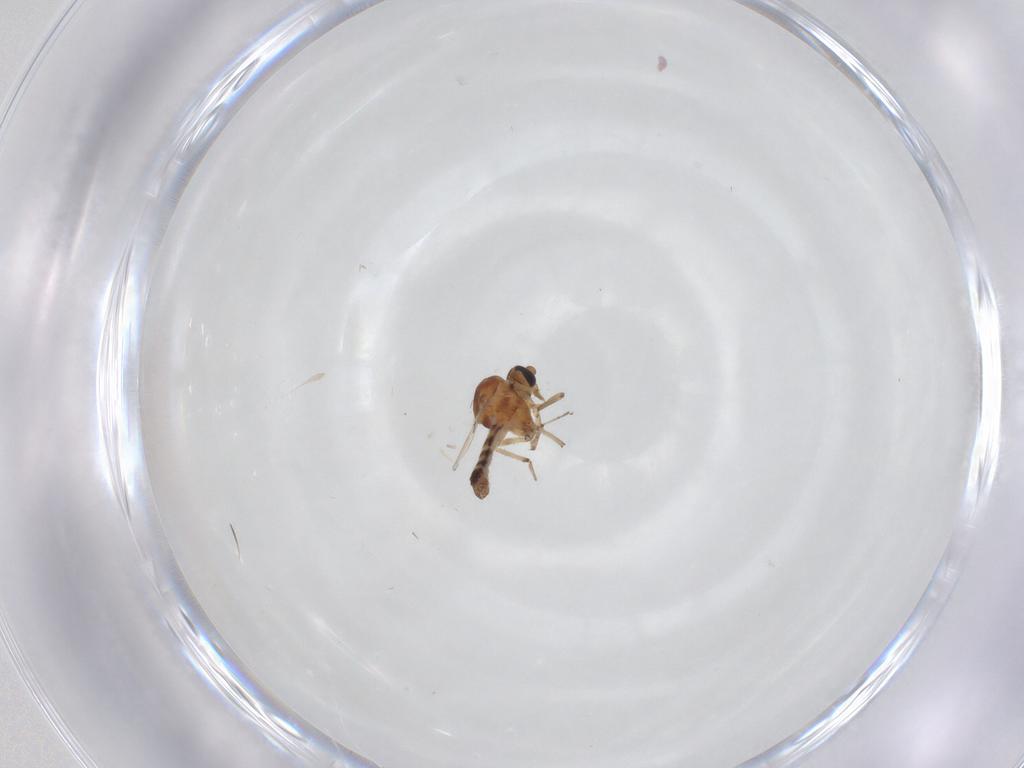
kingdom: Animalia
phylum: Arthropoda
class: Insecta
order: Diptera
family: Ceratopogonidae
